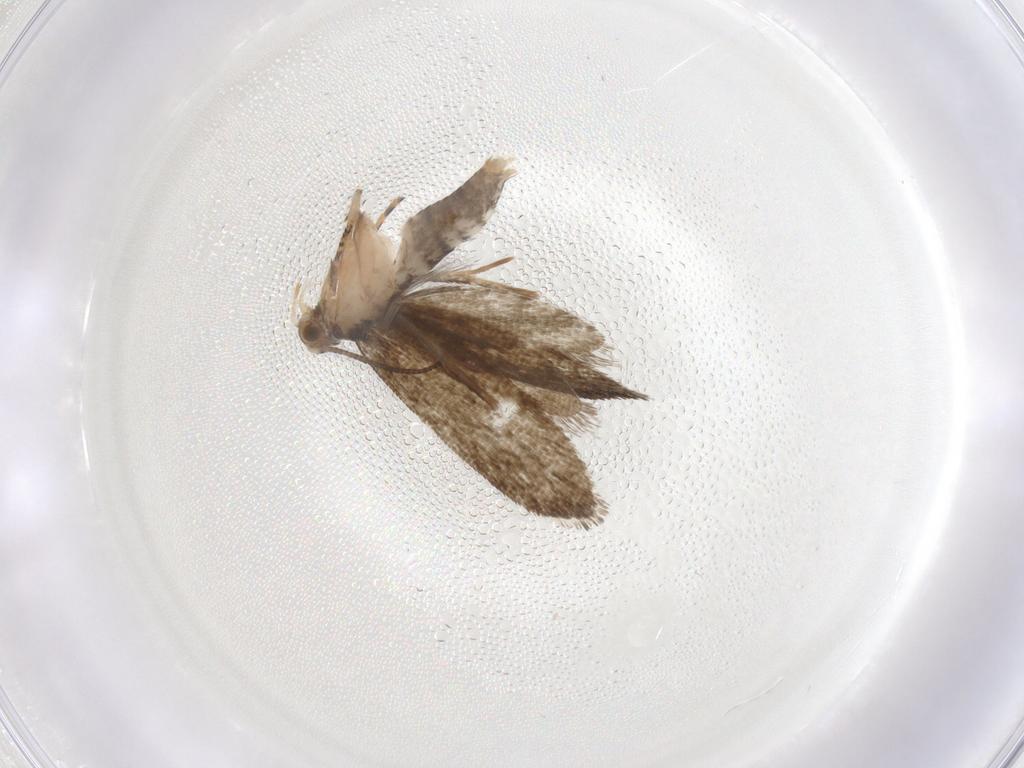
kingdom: Animalia
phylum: Arthropoda
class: Insecta
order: Lepidoptera
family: Tineidae
